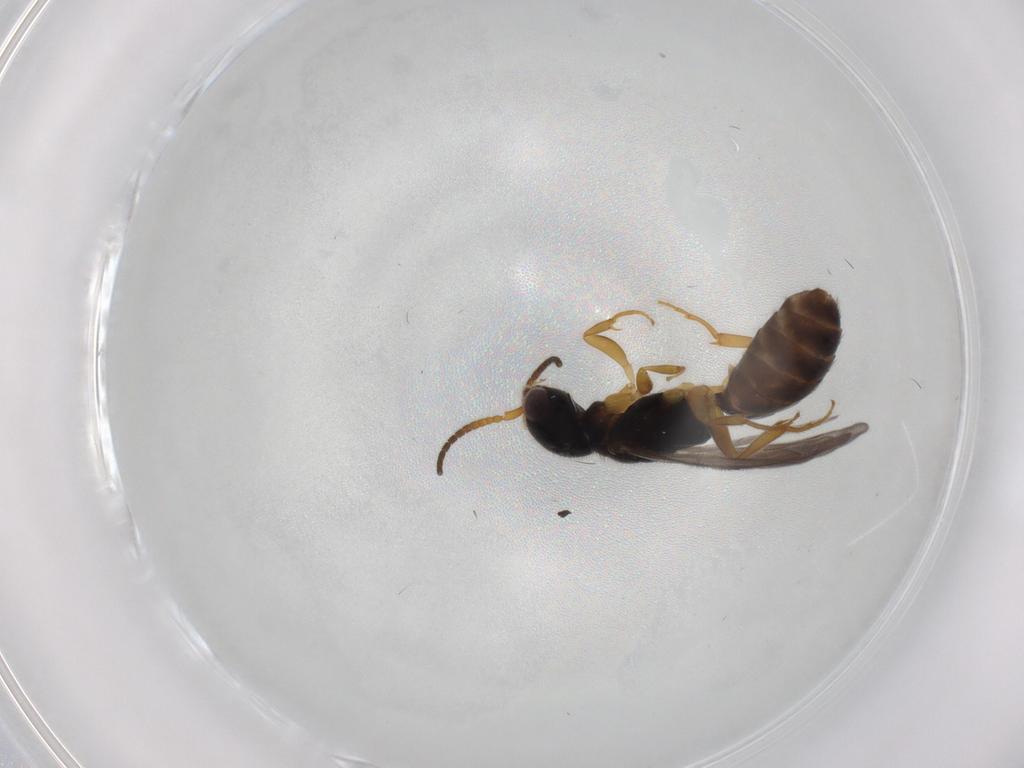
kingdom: Animalia
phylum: Arthropoda
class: Insecta
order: Hymenoptera
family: Bethylidae
